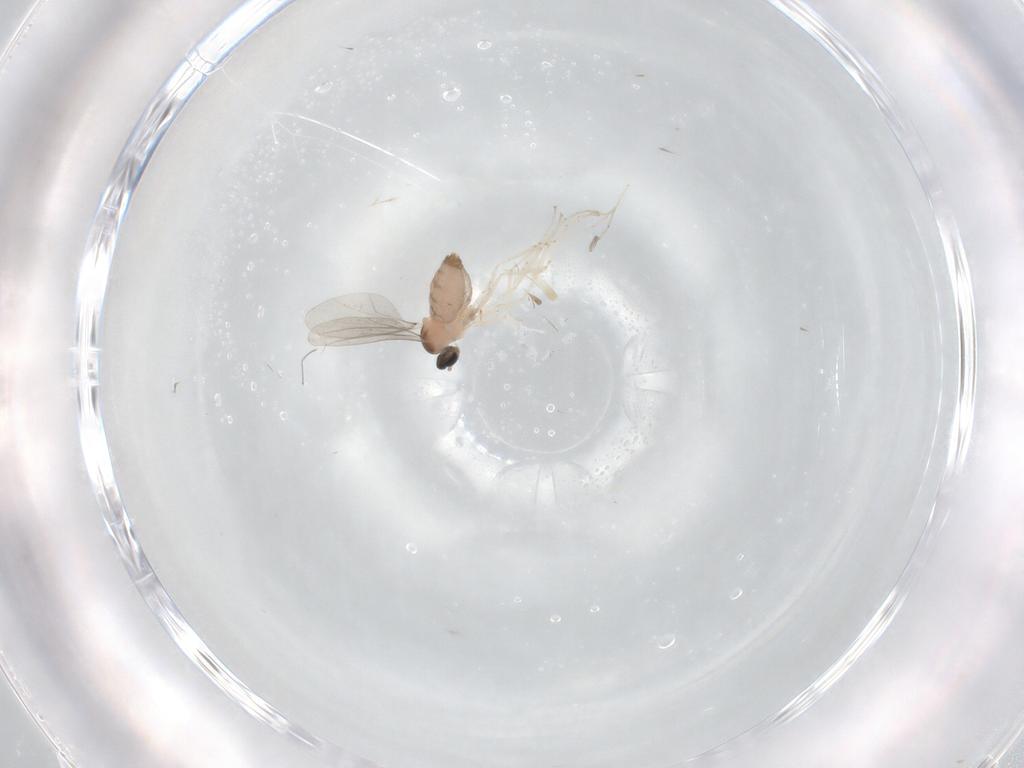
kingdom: Animalia
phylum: Arthropoda
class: Insecta
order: Diptera
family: Cecidomyiidae
